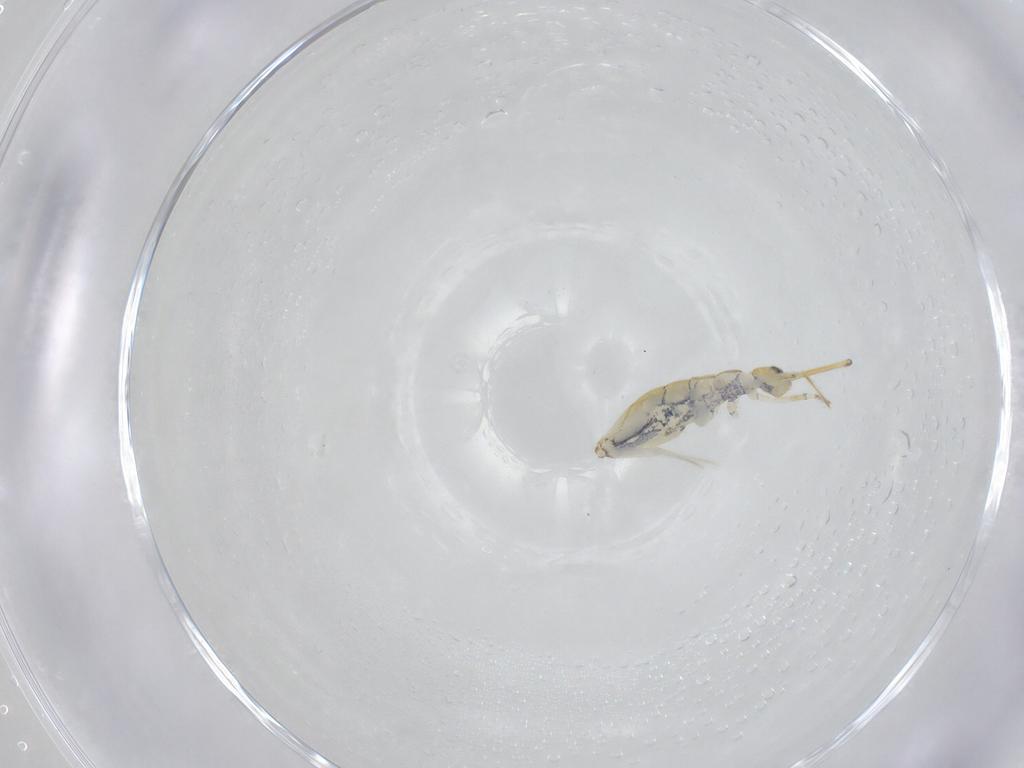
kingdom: Animalia
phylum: Arthropoda
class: Collembola
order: Entomobryomorpha
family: Paronellidae
